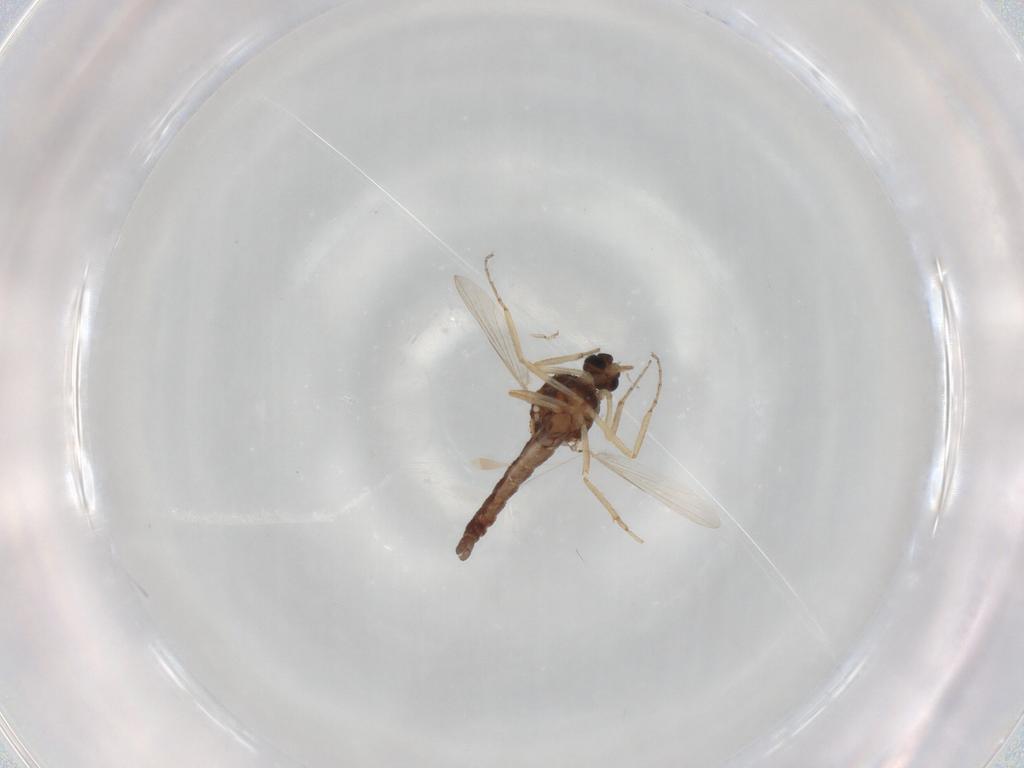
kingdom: Animalia
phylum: Arthropoda
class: Insecta
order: Diptera
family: Ceratopogonidae
